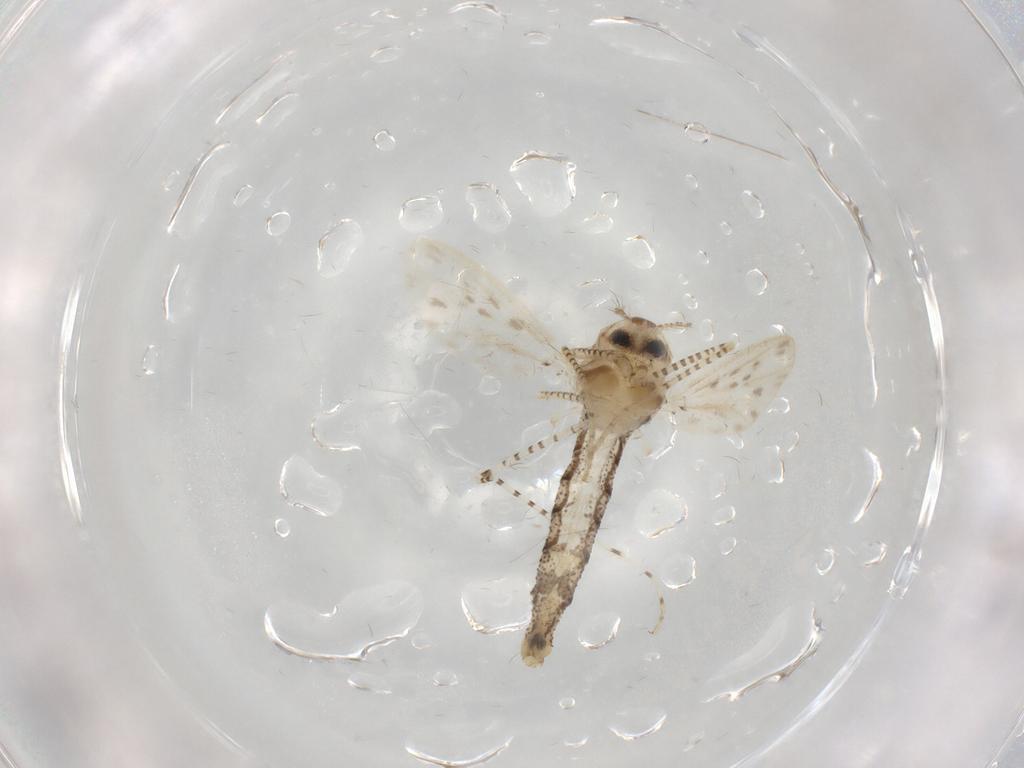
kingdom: Animalia
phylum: Arthropoda
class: Insecta
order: Diptera
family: Chaoboridae
